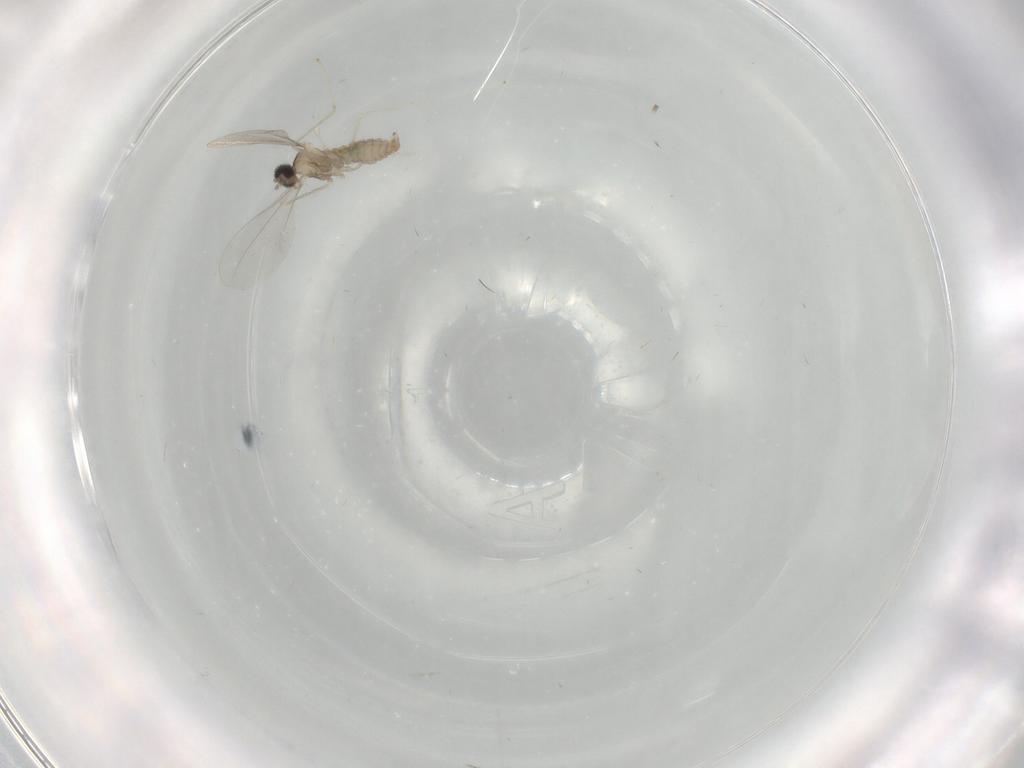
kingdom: Animalia
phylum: Arthropoda
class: Insecta
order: Diptera
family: Cecidomyiidae
